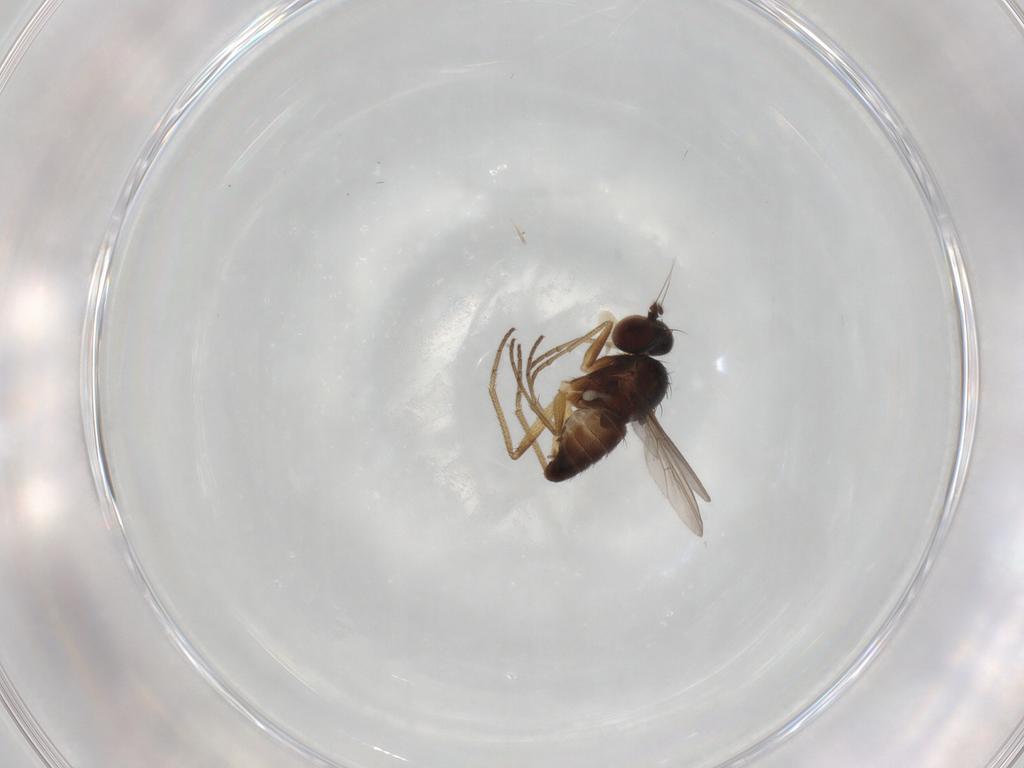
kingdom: Animalia
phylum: Arthropoda
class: Insecta
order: Diptera
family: Dolichopodidae
